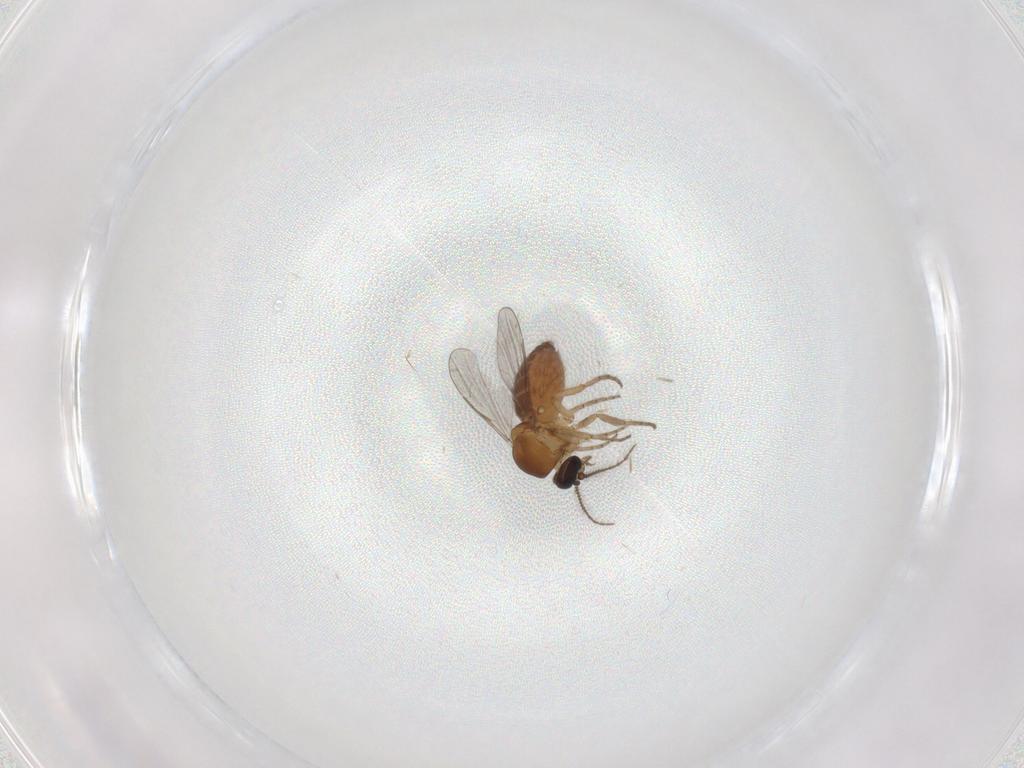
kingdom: Animalia
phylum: Arthropoda
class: Insecta
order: Diptera
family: Ceratopogonidae
